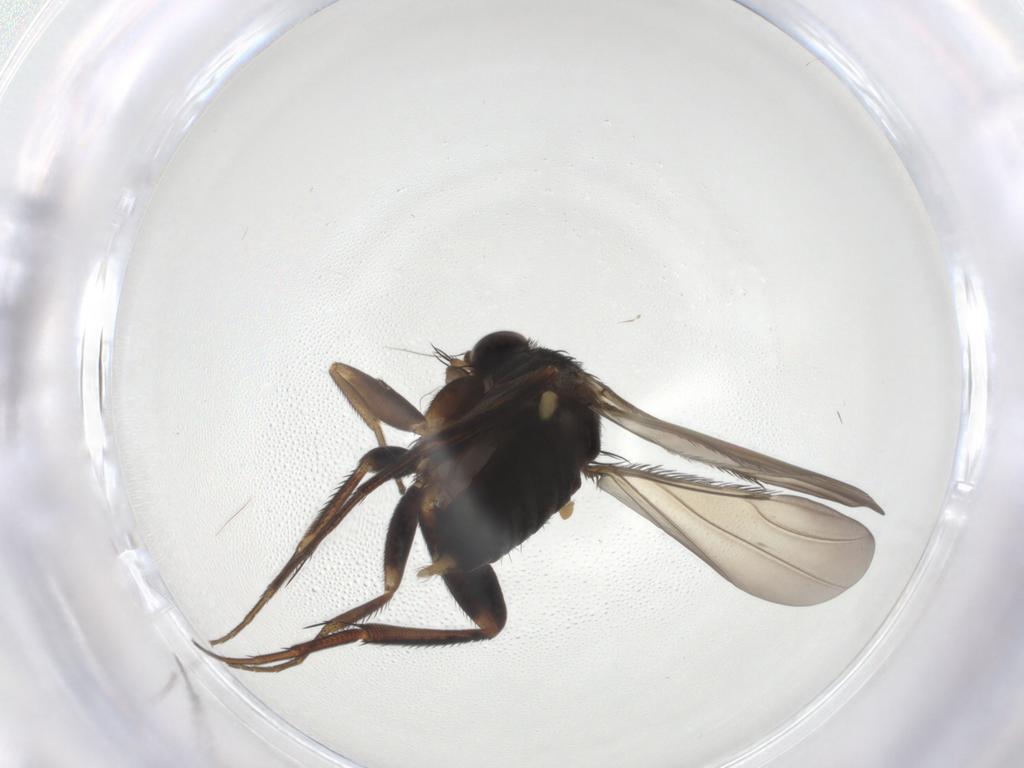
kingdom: Animalia
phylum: Arthropoda
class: Insecta
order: Diptera
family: Phoridae
